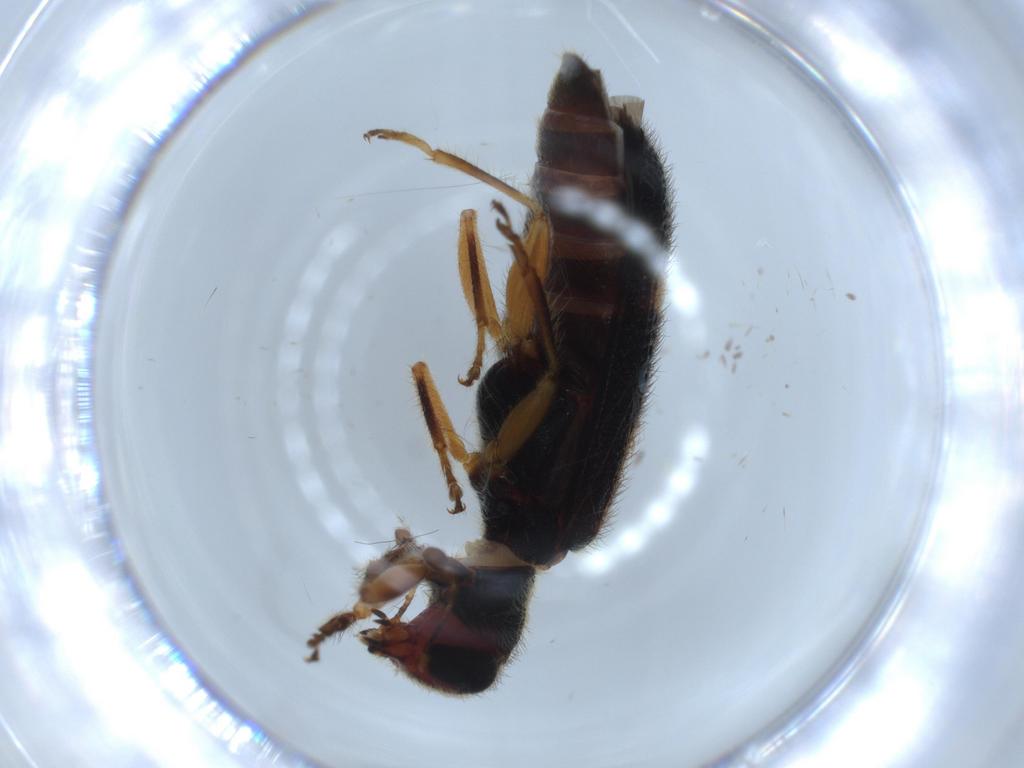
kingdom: Animalia
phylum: Arthropoda
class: Insecta
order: Coleoptera
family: Cleridae
